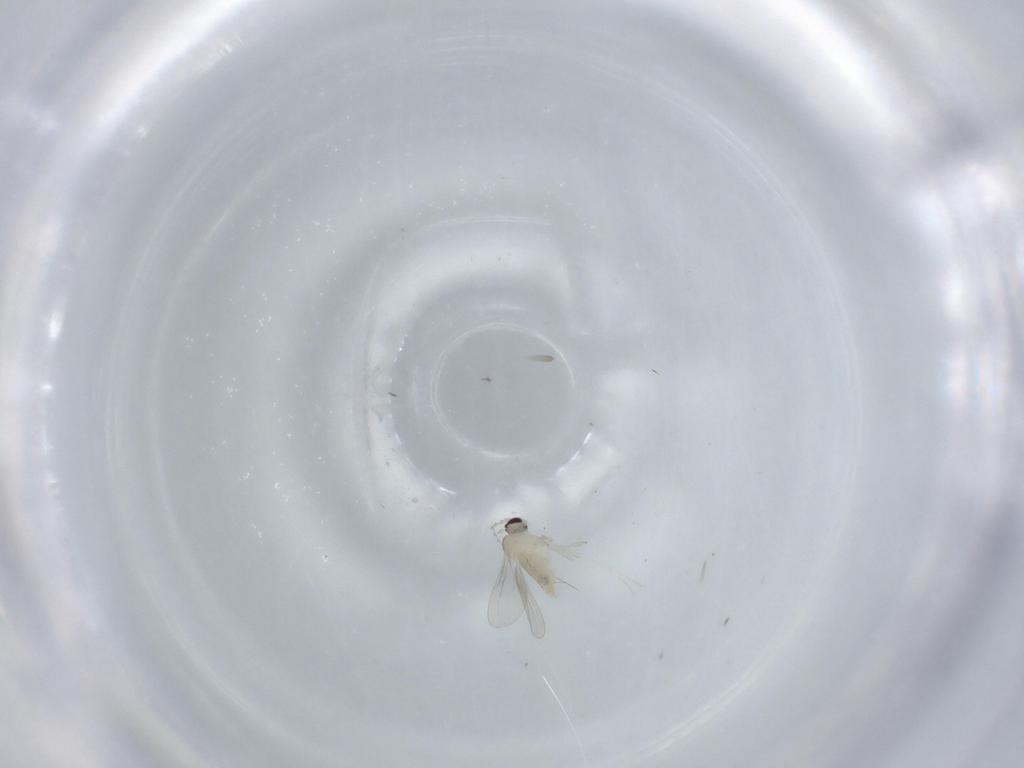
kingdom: Animalia
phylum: Arthropoda
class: Insecta
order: Diptera
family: Cecidomyiidae
